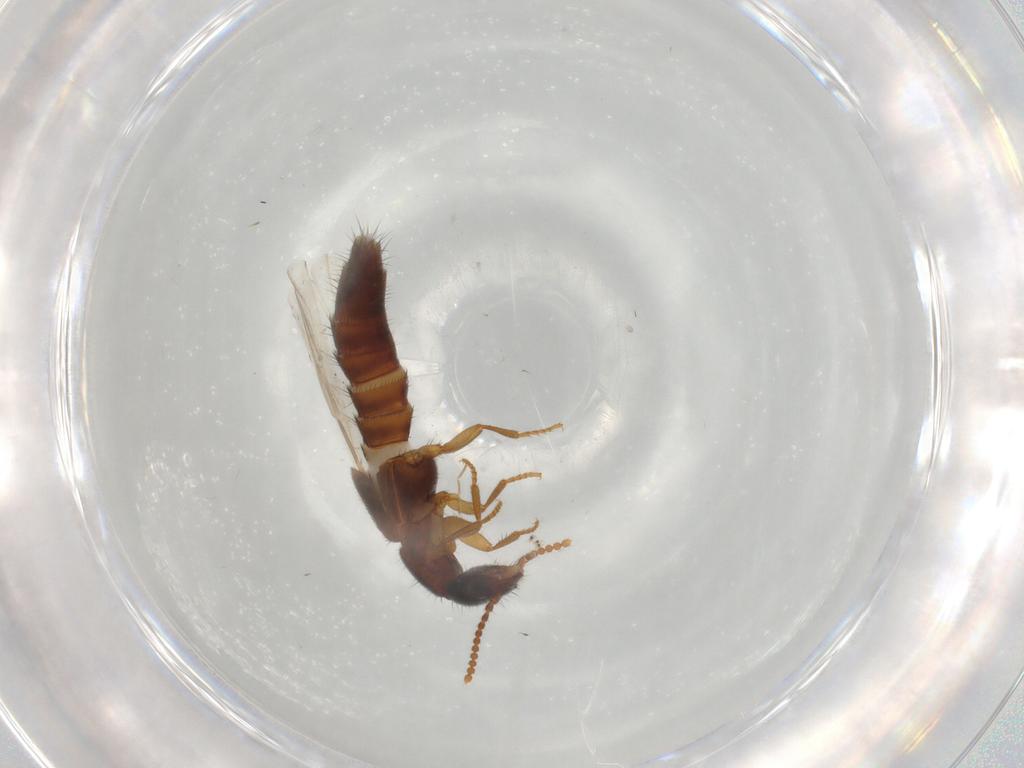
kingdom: Animalia
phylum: Arthropoda
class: Insecta
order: Coleoptera
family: Staphylinidae
